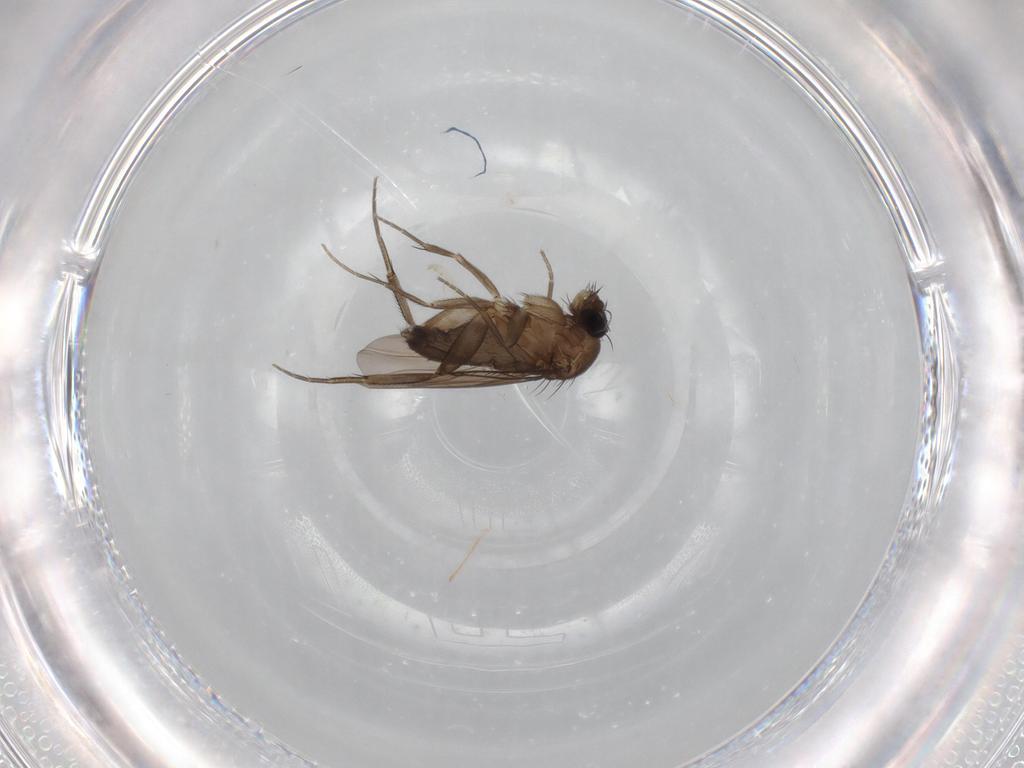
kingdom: Animalia
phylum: Arthropoda
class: Insecta
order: Diptera
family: Phoridae
